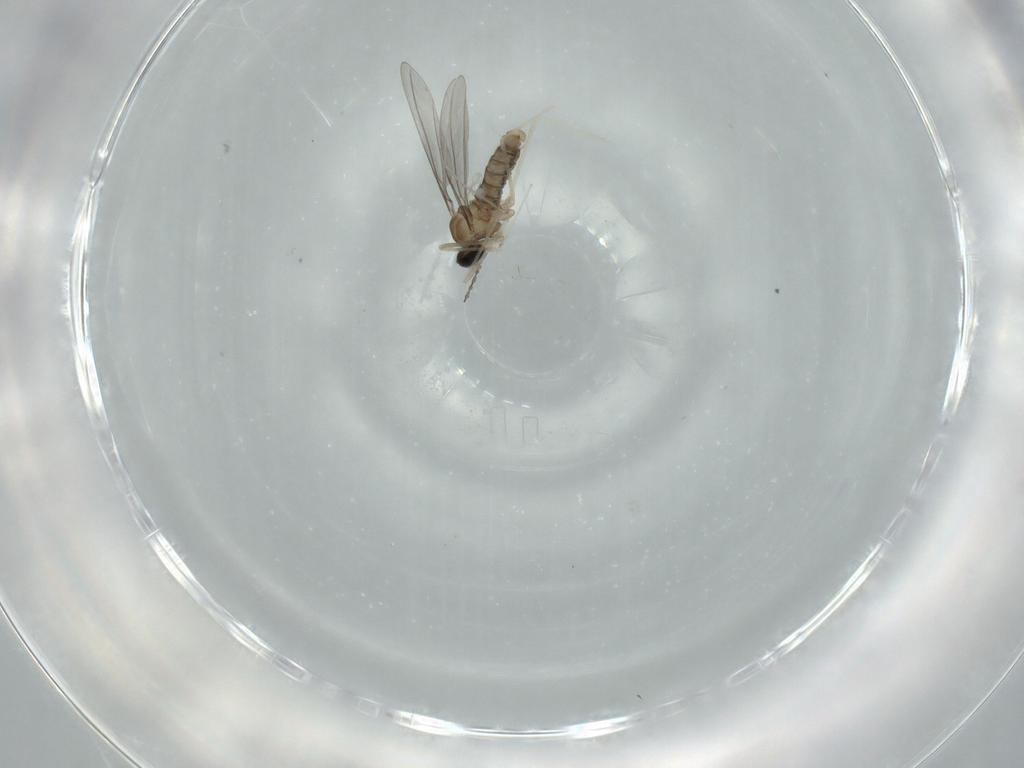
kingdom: Animalia
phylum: Arthropoda
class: Insecta
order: Diptera
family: Cecidomyiidae
